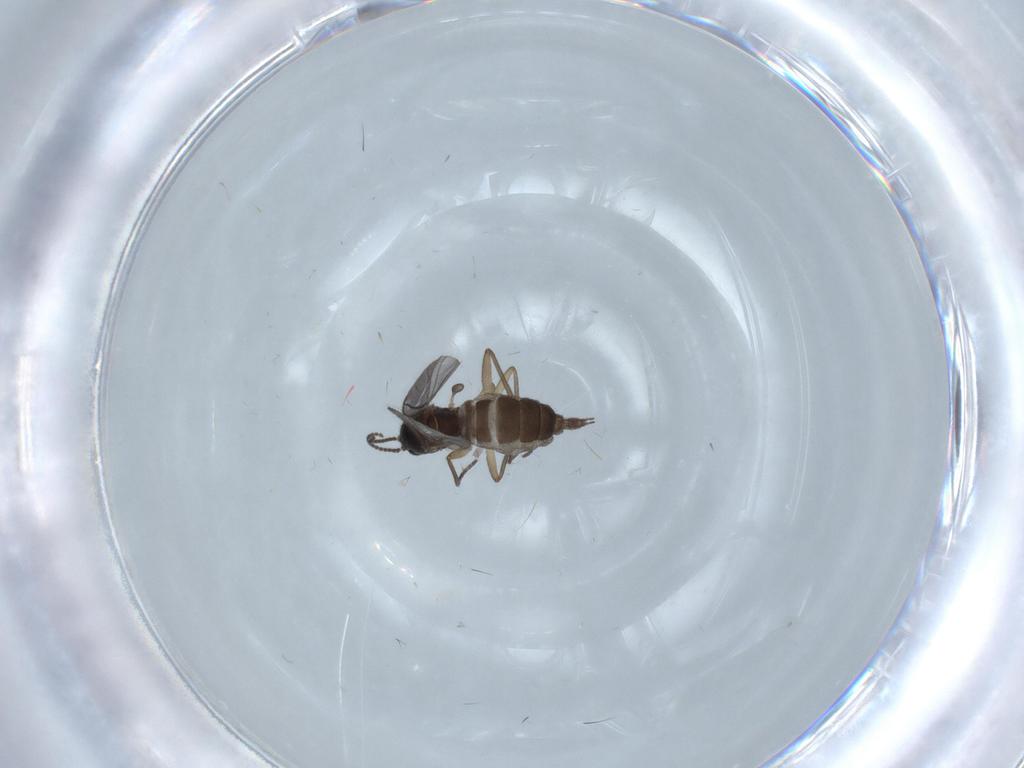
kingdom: Animalia
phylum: Arthropoda
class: Insecta
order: Diptera
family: Sciaridae
